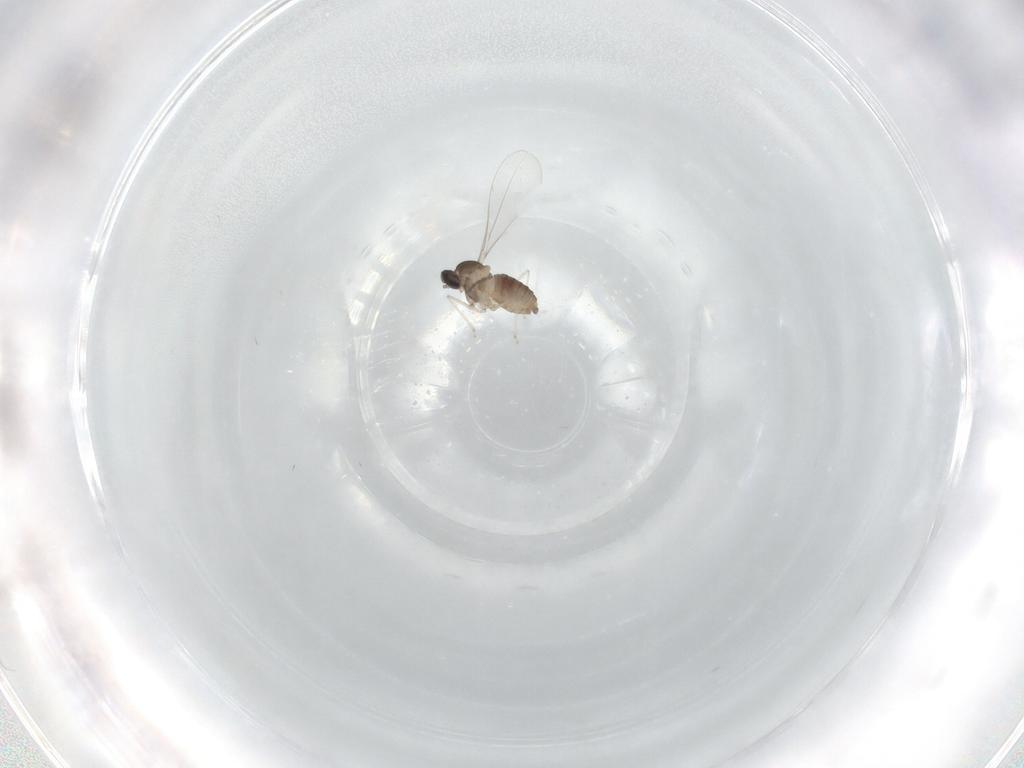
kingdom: Animalia
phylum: Arthropoda
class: Insecta
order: Diptera
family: Cecidomyiidae
